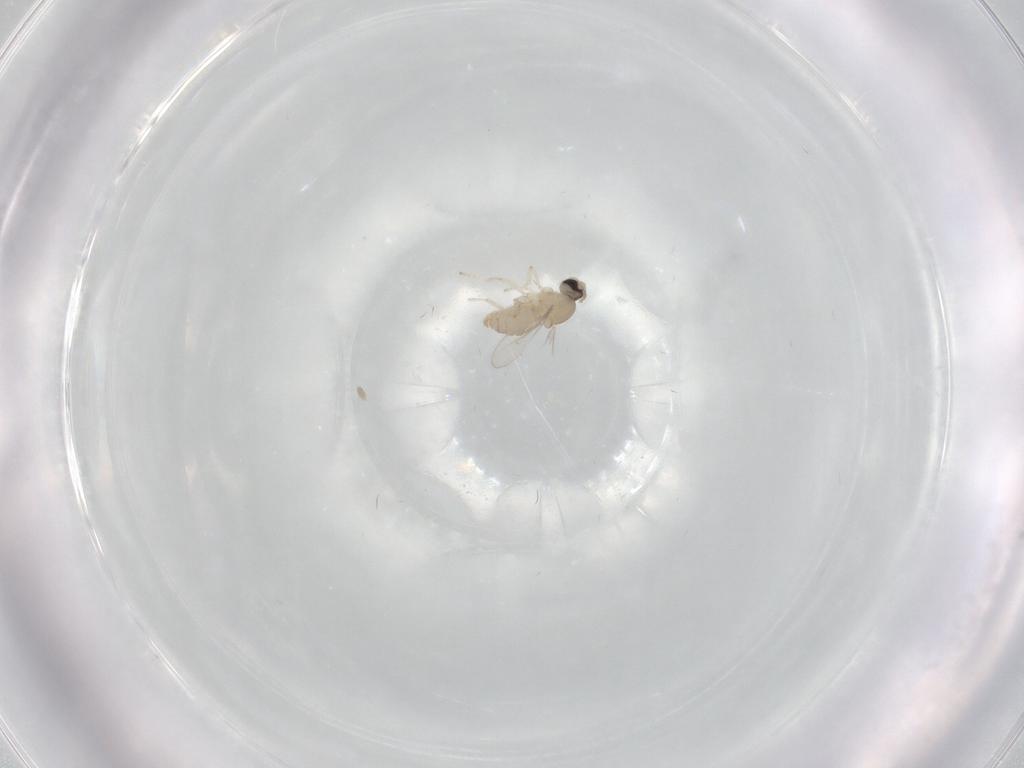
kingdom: Animalia
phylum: Arthropoda
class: Insecta
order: Diptera
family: Cecidomyiidae
